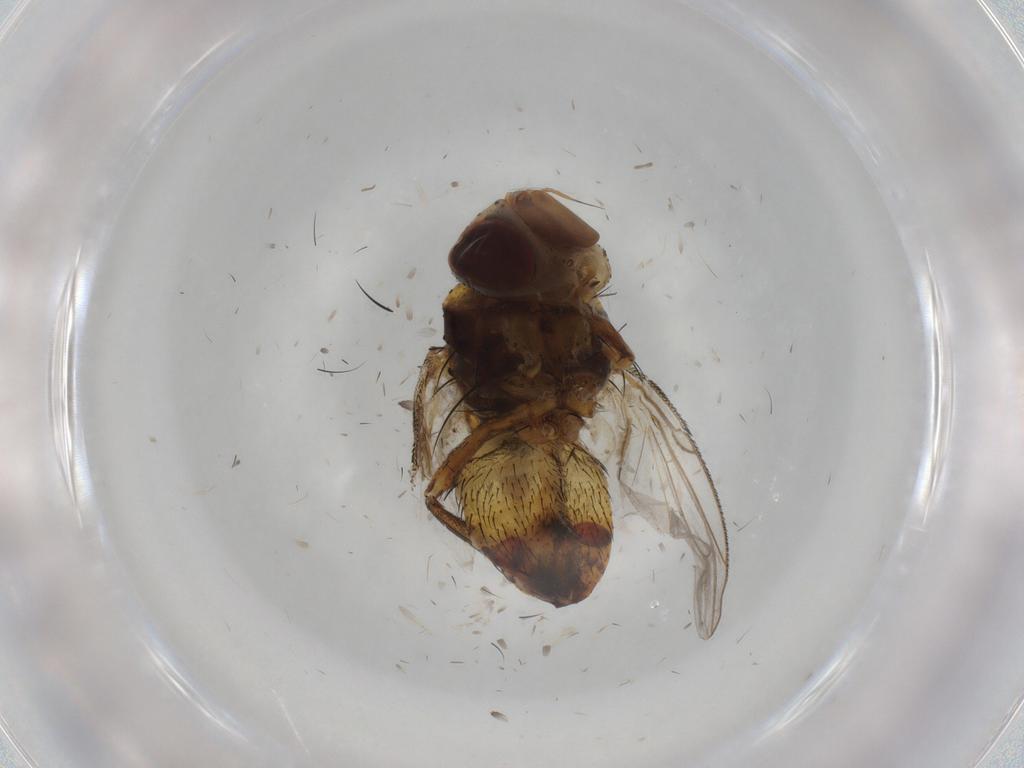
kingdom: Animalia
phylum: Arthropoda
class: Insecta
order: Diptera
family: Glossinidae
